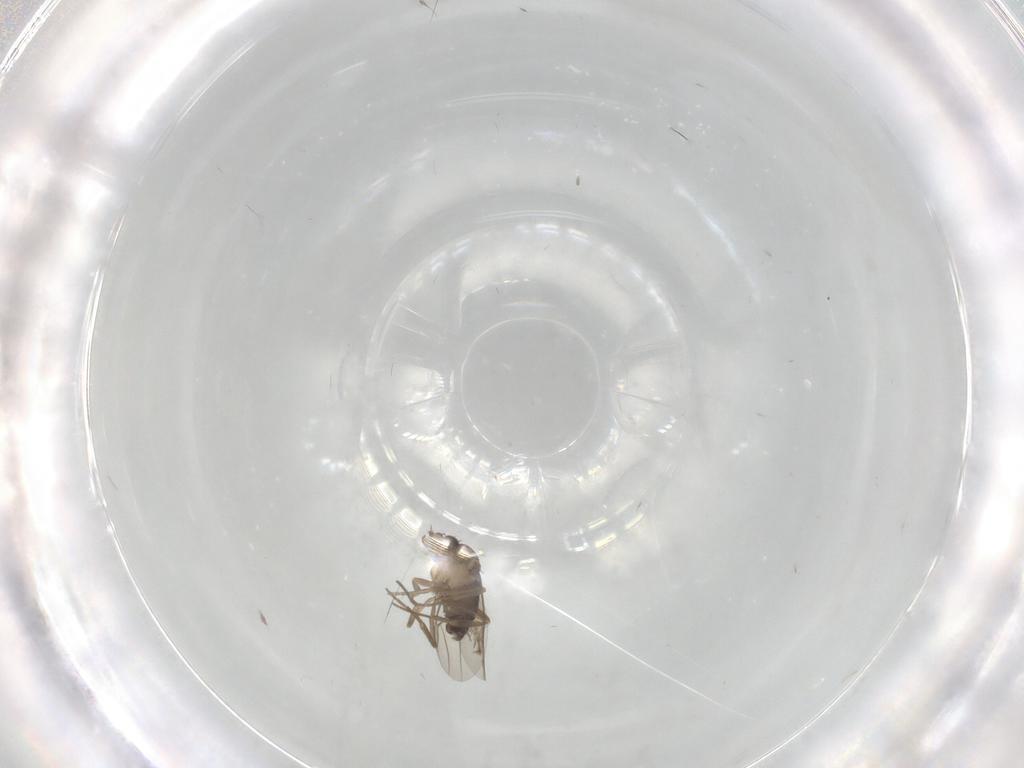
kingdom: Animalia
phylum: Arthropoda
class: Insecta
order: Diptera
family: Phoridae
